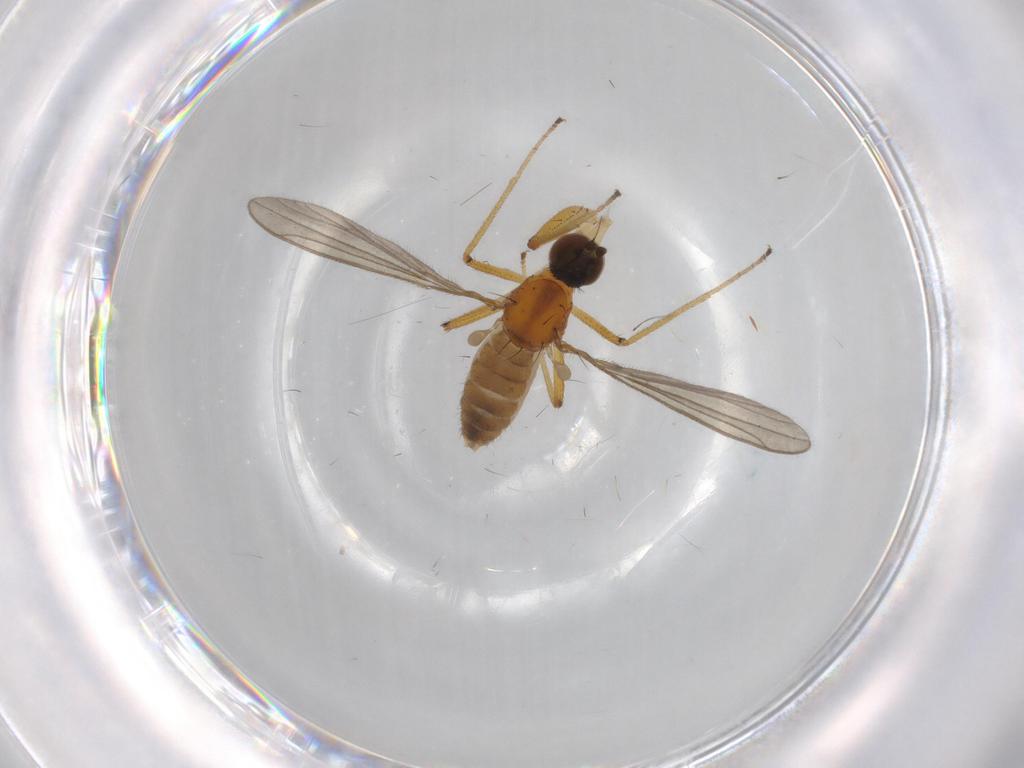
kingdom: Animalia
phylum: Arthropoda
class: Insecta
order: Diptera
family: Empididae
